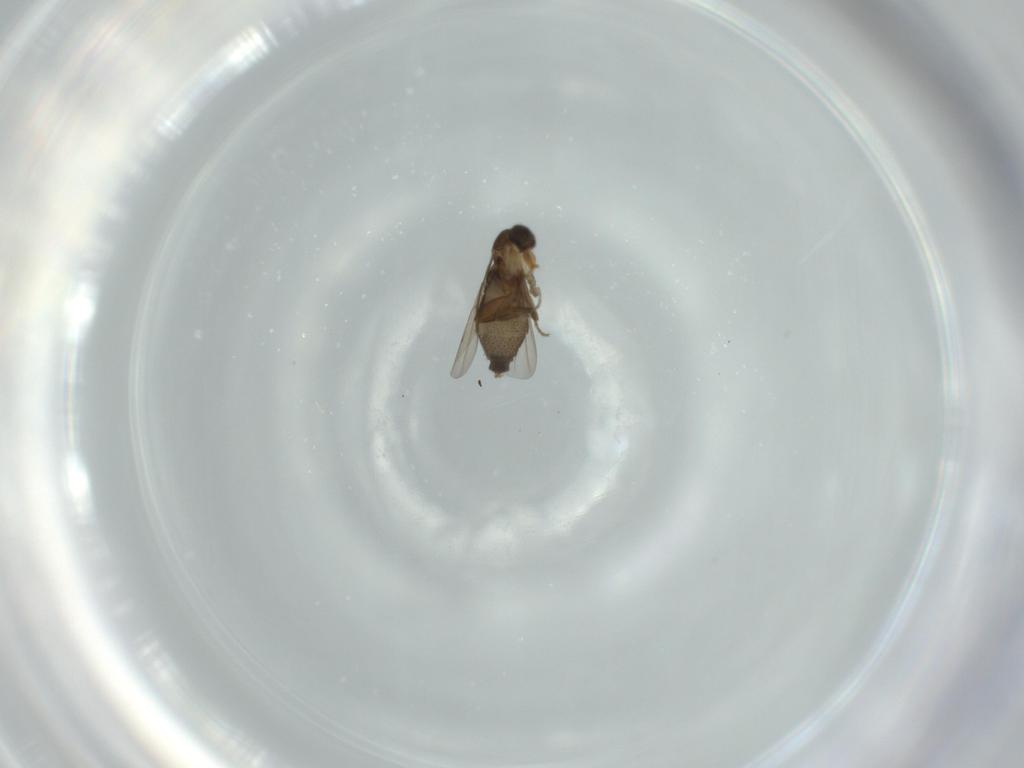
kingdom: Animalia
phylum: Arthropoda
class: Insecta
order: Diptera
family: Phoridae
